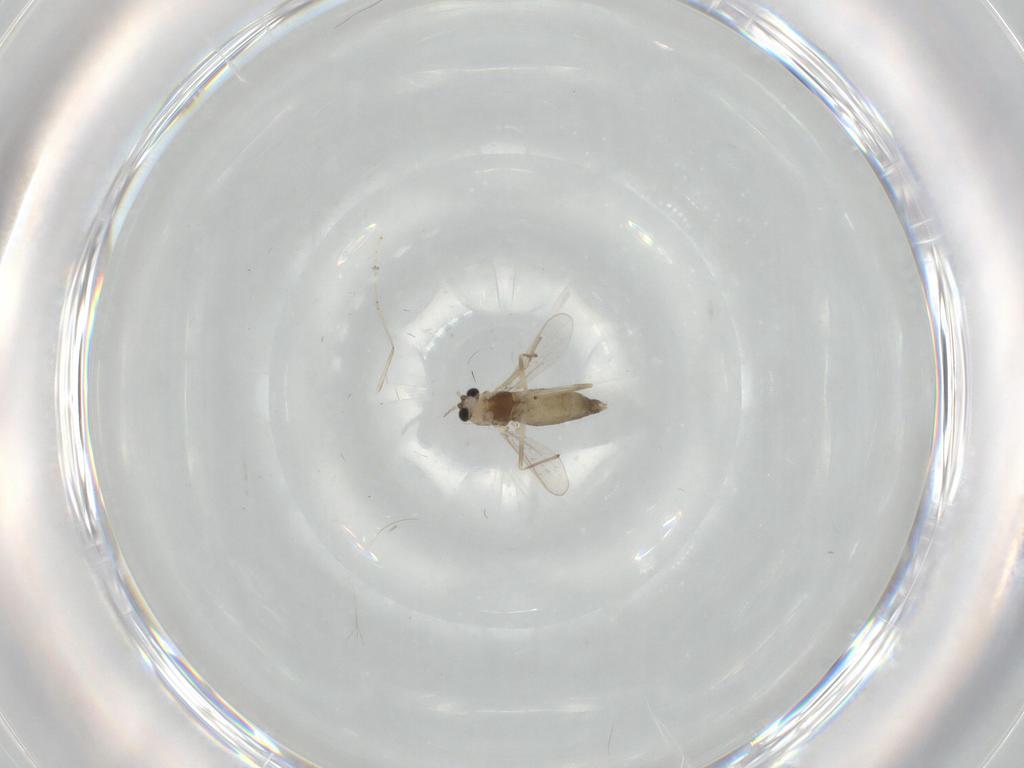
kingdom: Animalia
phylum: Arthropoda
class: Insecta
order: Diptera
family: Chironomidae
